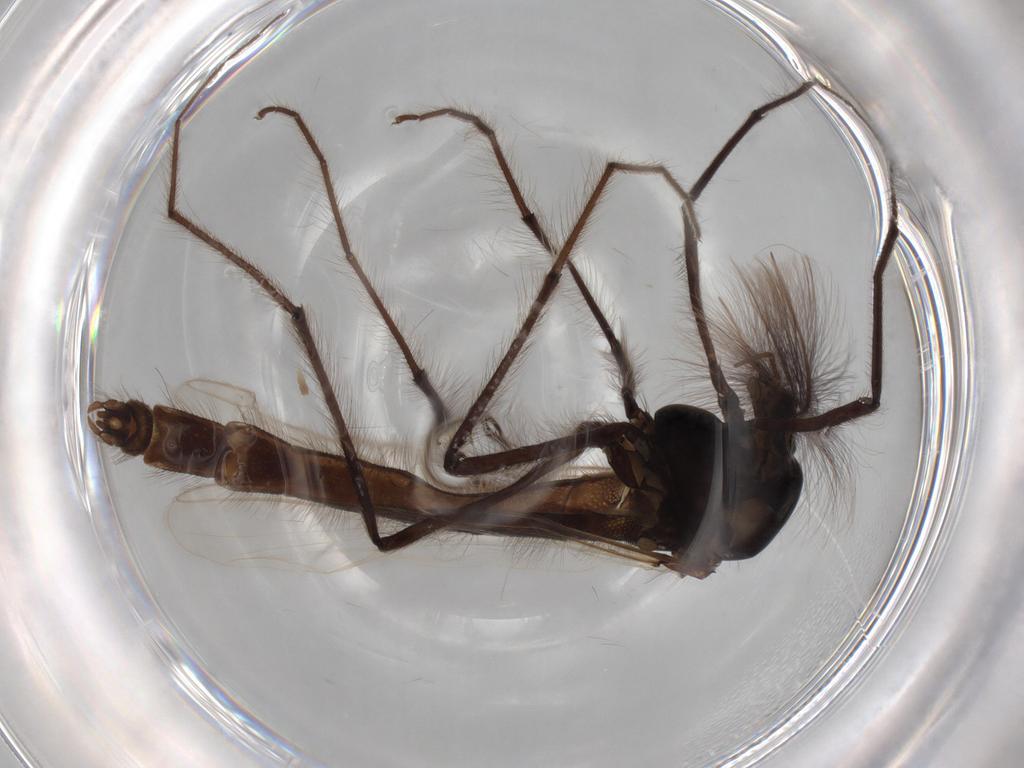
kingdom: Animalia
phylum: Arthropoda
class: Insecta
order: Diptera
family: Chironomidae
